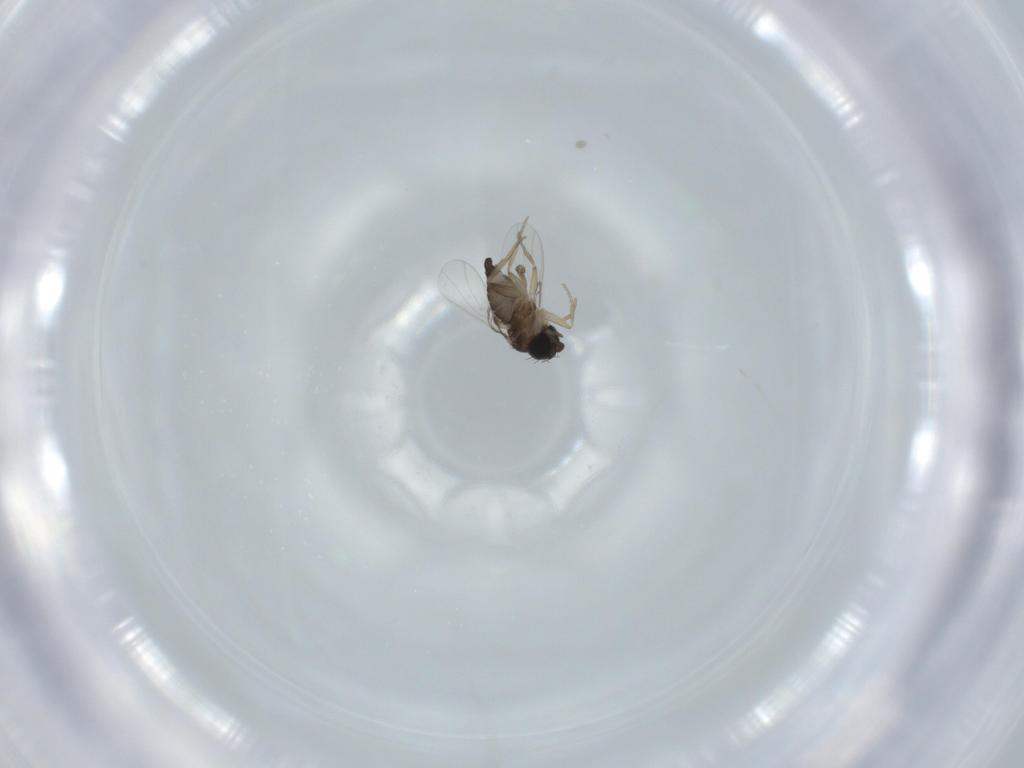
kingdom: Animalia
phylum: Arthropoda
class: Insecta
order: Diptera
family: Phoridae
